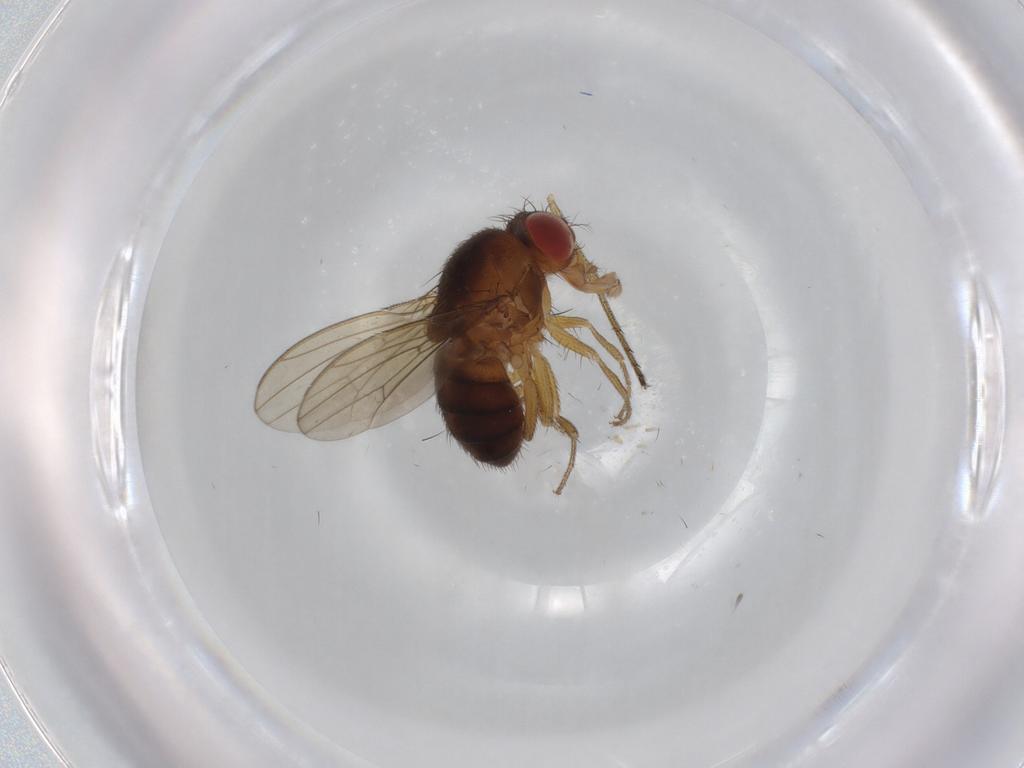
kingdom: Animalia
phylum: Arthropoda
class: Insecta
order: Diptera
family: Drosophilidae
